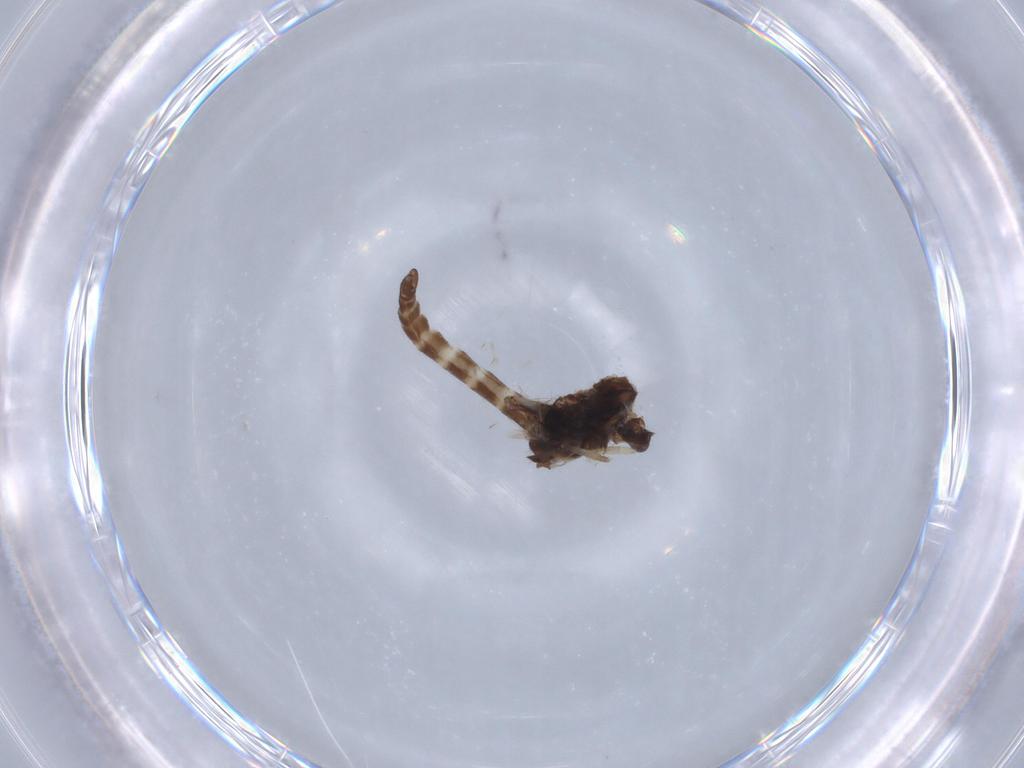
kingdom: Animalia
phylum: Arthropoda
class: Insecta
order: Diptera
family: Ceratopogonidae
